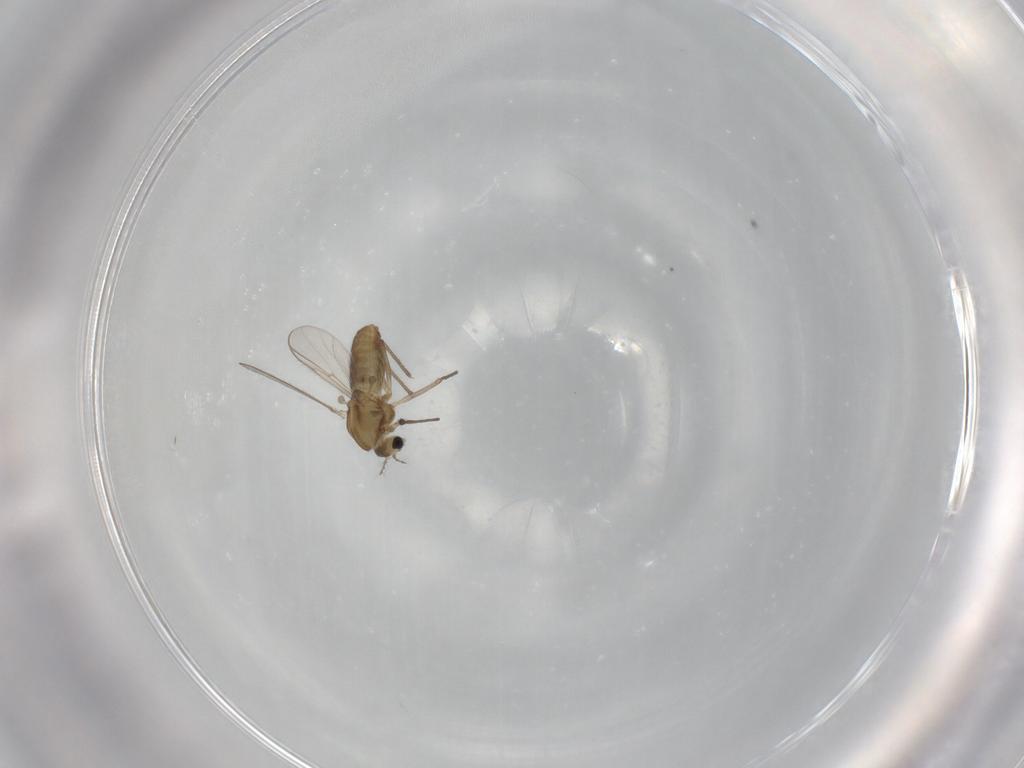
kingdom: Animalia
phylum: Arthropoda
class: Insecta
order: Diptera
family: Chironomidae
